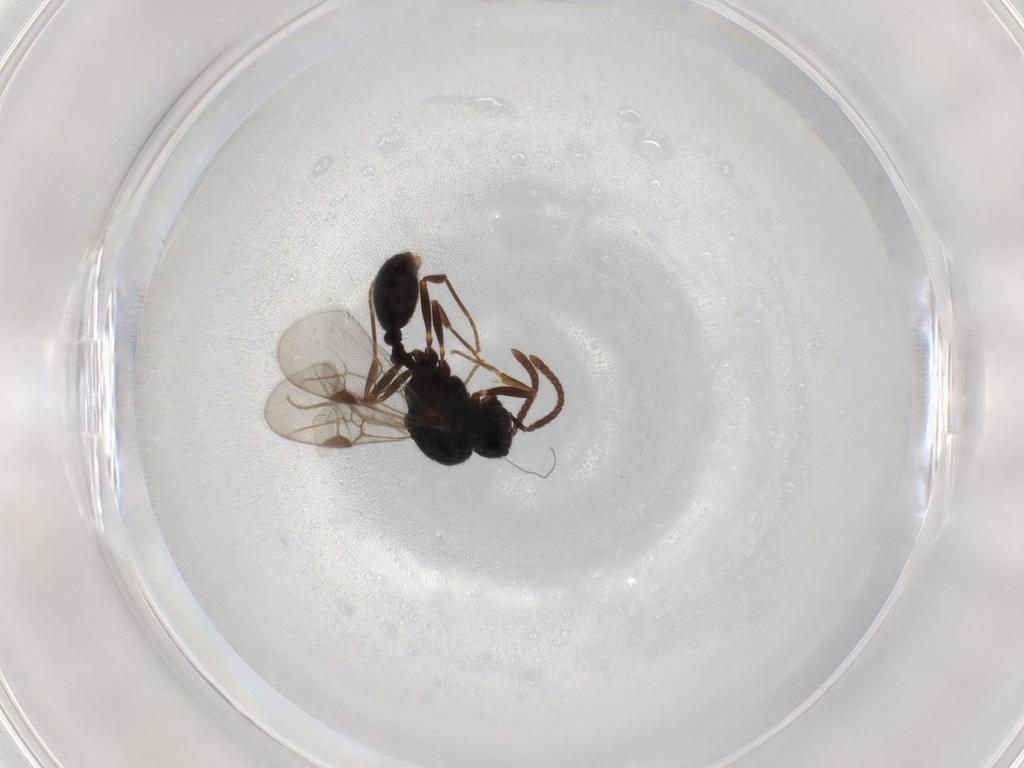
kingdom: Animalia
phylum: Arthropoda
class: Insecta
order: Hymenoptera
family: Formicidae
